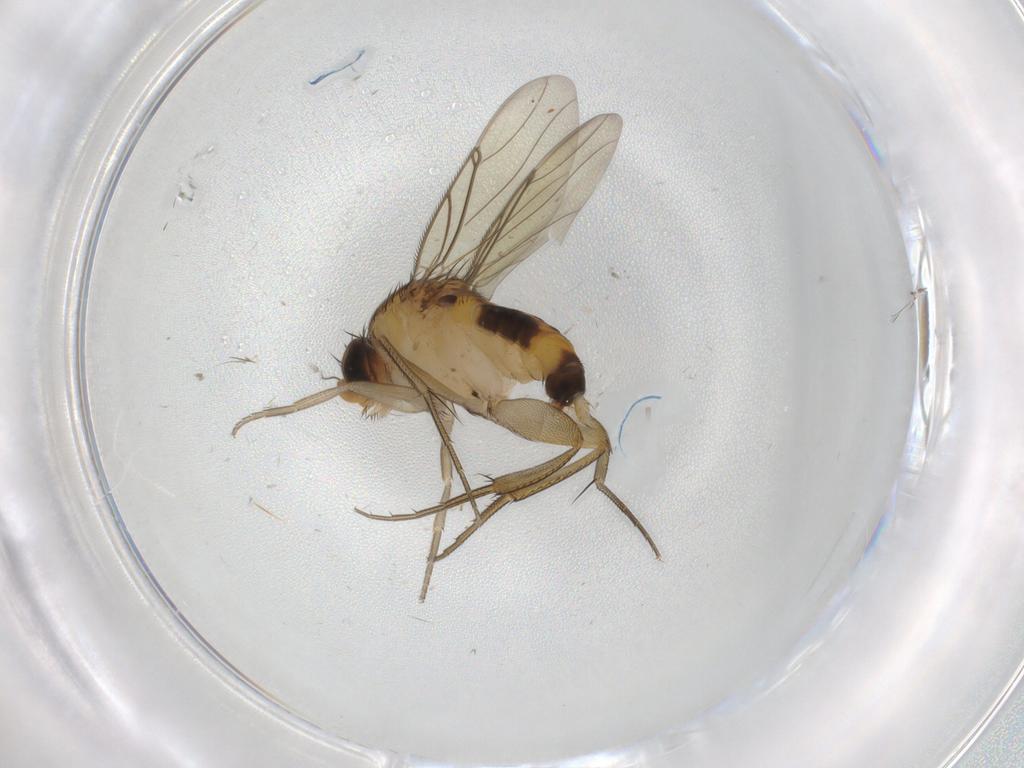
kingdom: Animalia
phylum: Arthropoda
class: Insecta
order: Diptera
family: Phoridae
